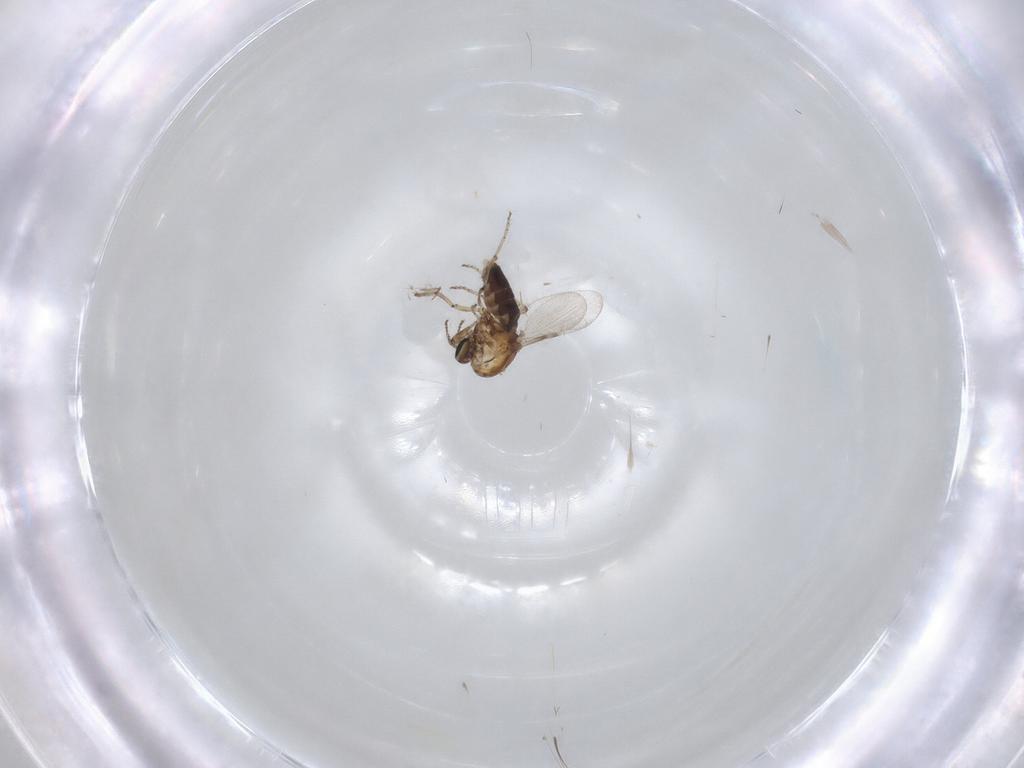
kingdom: Animalia
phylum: Arthropoda
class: Insecta
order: Diptera
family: Ceratopogonidae
